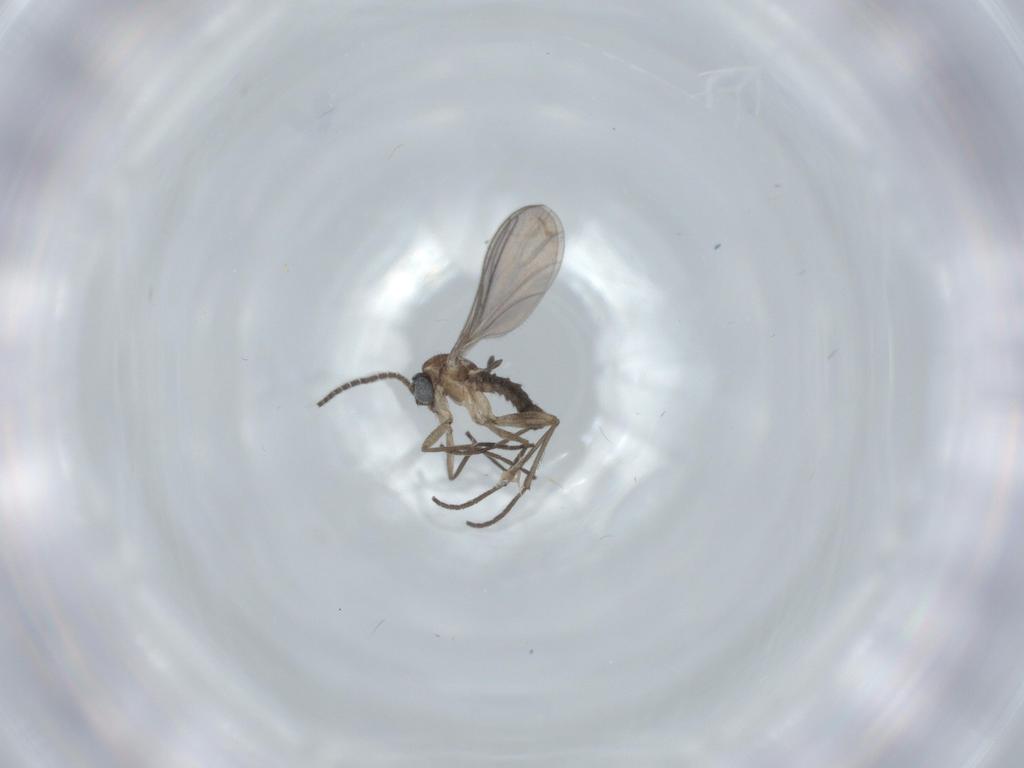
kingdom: Animalia
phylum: Arthropoda
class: Insecta
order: Diptera
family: Sciaridae
